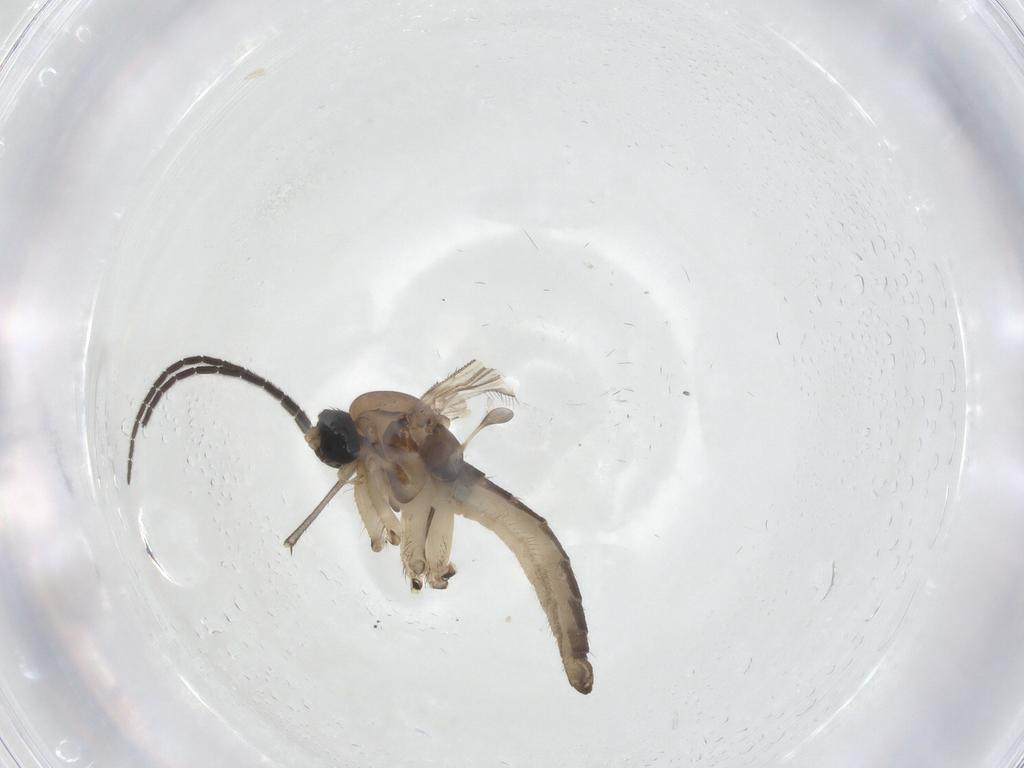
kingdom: Animalia
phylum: Arthropoda
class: Insecta
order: Diptera
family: Sciaridae
